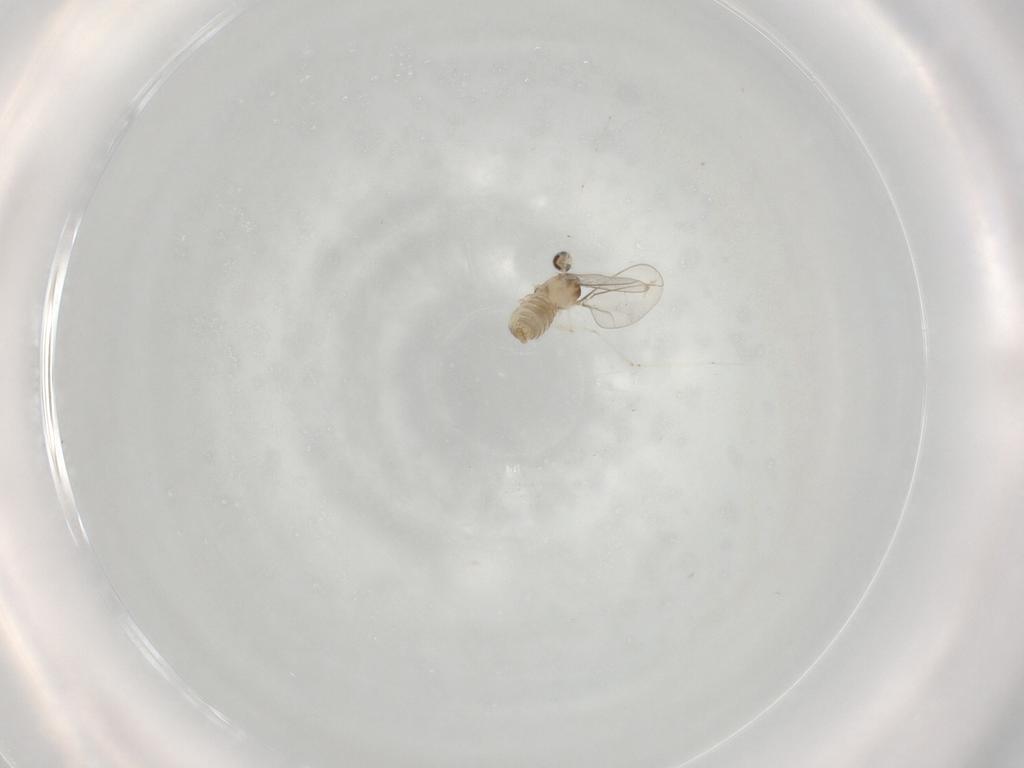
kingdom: Animalia
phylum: Arthropoda
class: Insecta
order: Diptera
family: Cecidomyiidae
